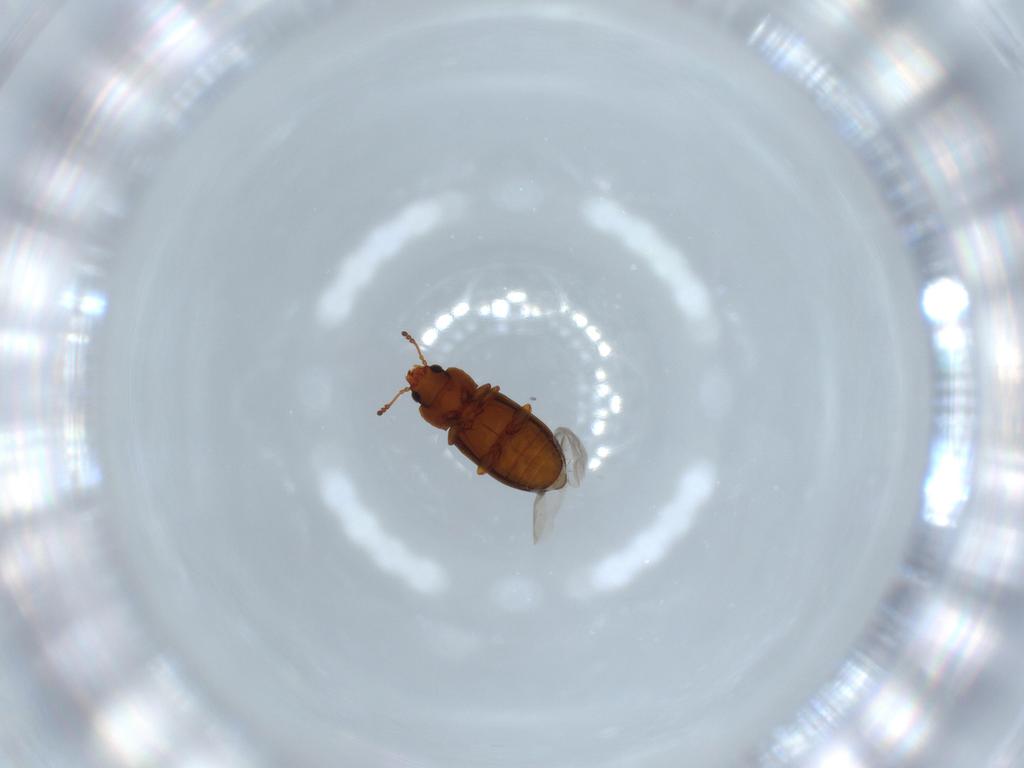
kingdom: Animalia
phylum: Arthropoda
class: Insecta
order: Coleoptera
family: Laemophloeidae
